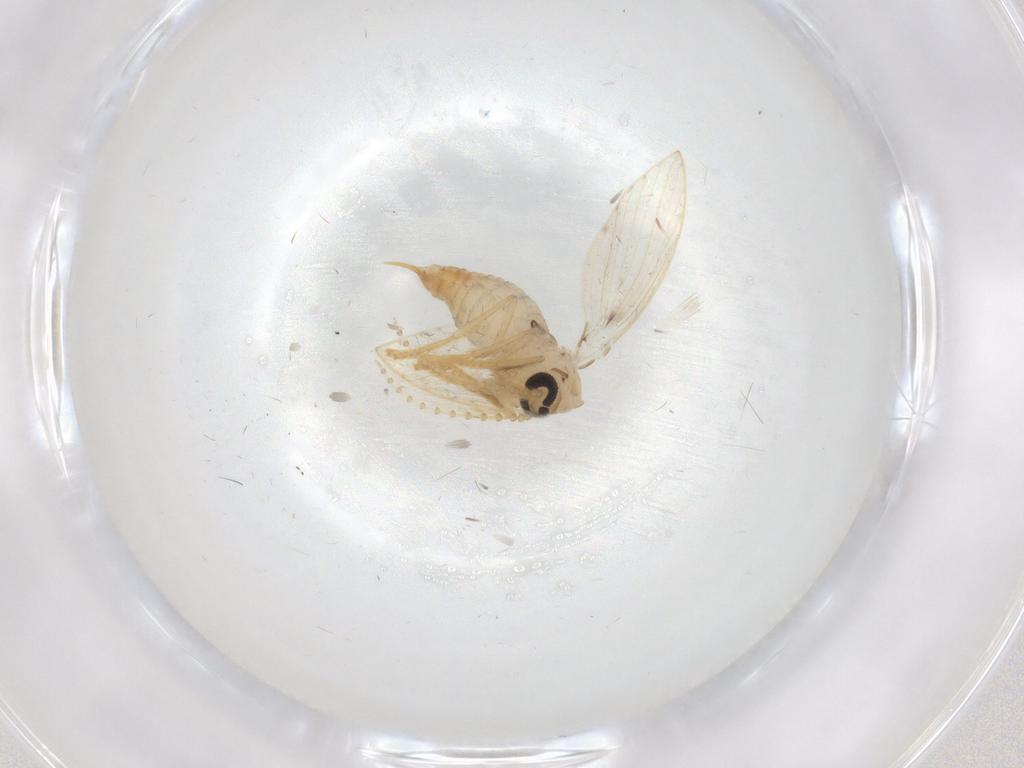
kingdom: Animalia
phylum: Arthropoda
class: Insecta
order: Diptera
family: Psychodidae
